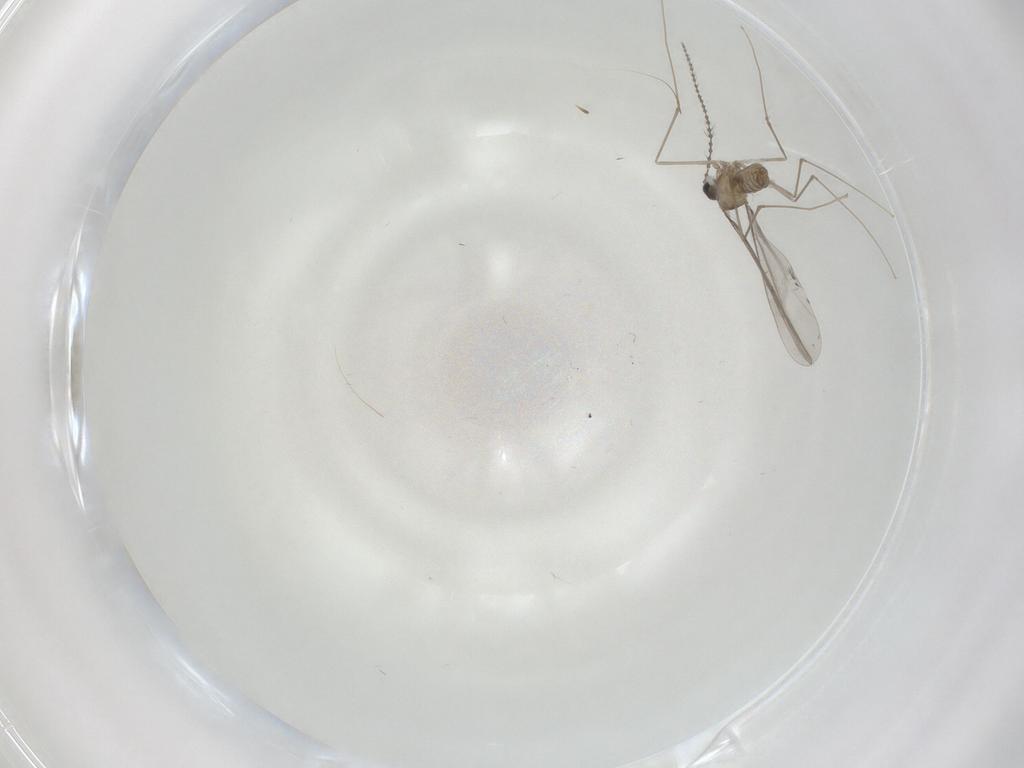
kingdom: Animalia
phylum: Arthropoda
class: Insecta
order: Diptera
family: Cecidomyiidae
